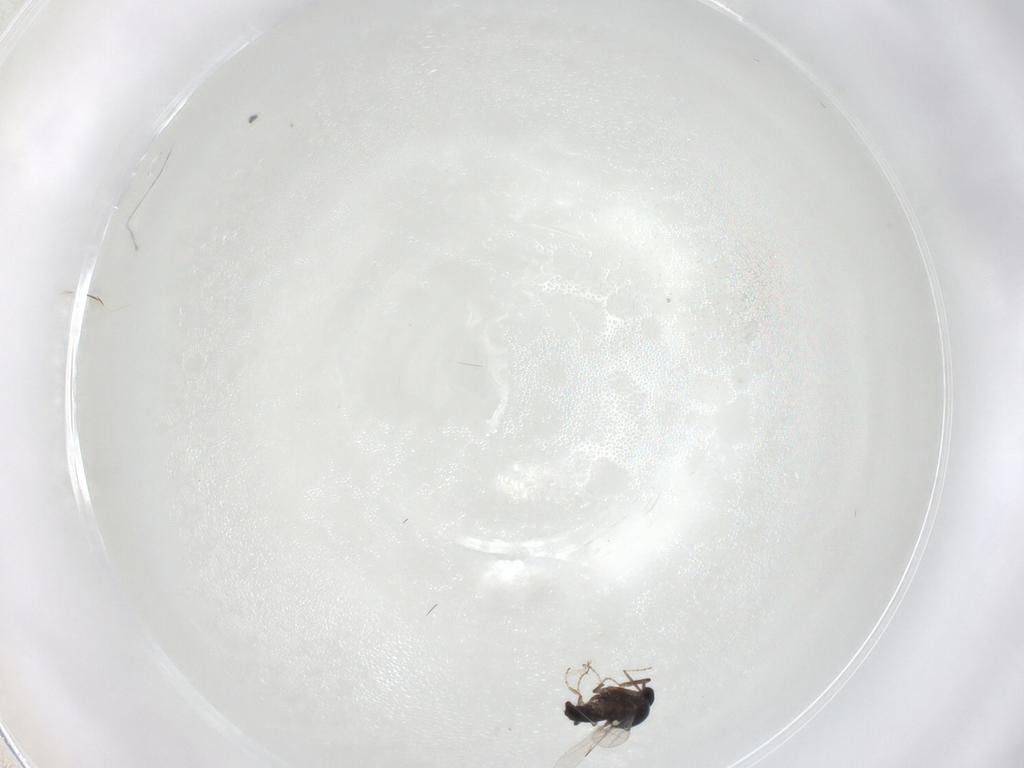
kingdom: Animalia
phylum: Arthropoda
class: Insecta
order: Diptera
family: Ceratopogonidae
